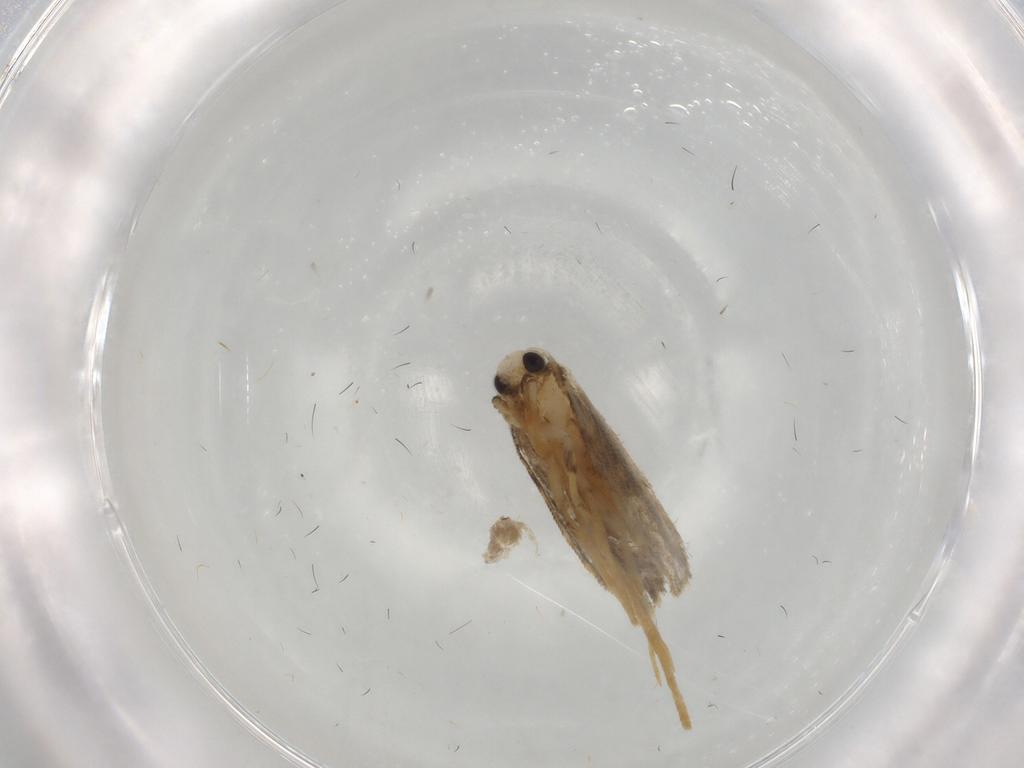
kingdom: Animalia
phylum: Arthropoda
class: Insecta
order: Lepidoptera
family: Psychidae
